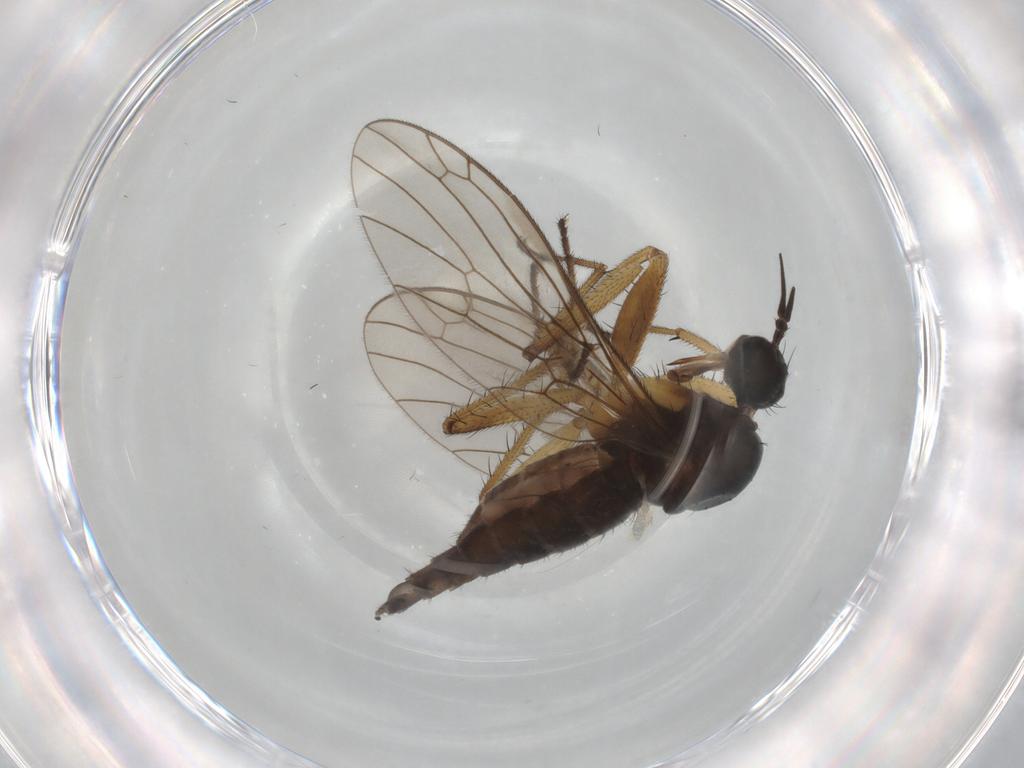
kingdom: Animalia
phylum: Arthropoda
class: Insecta
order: Diptera
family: Empididae
